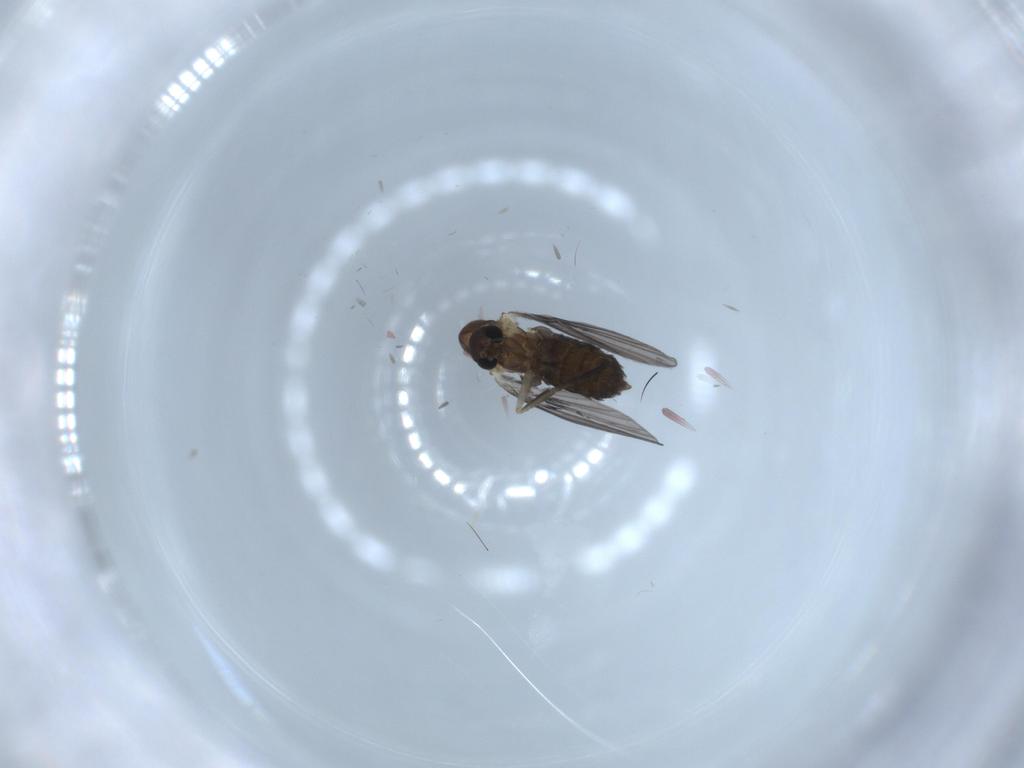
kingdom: Animalia
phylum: Arthropoda
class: Insecta
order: Diptera
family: Psychodidae
